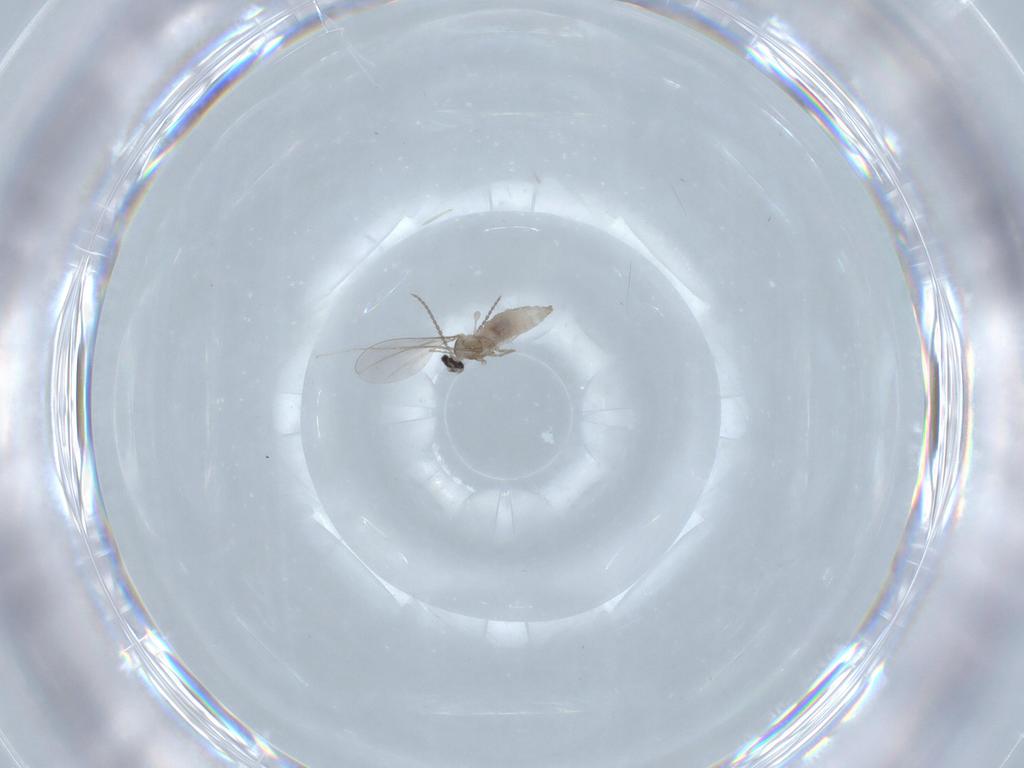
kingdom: Animalia
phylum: Arthropoda
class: Insecta
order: Diptera
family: Cecidomyiidae
